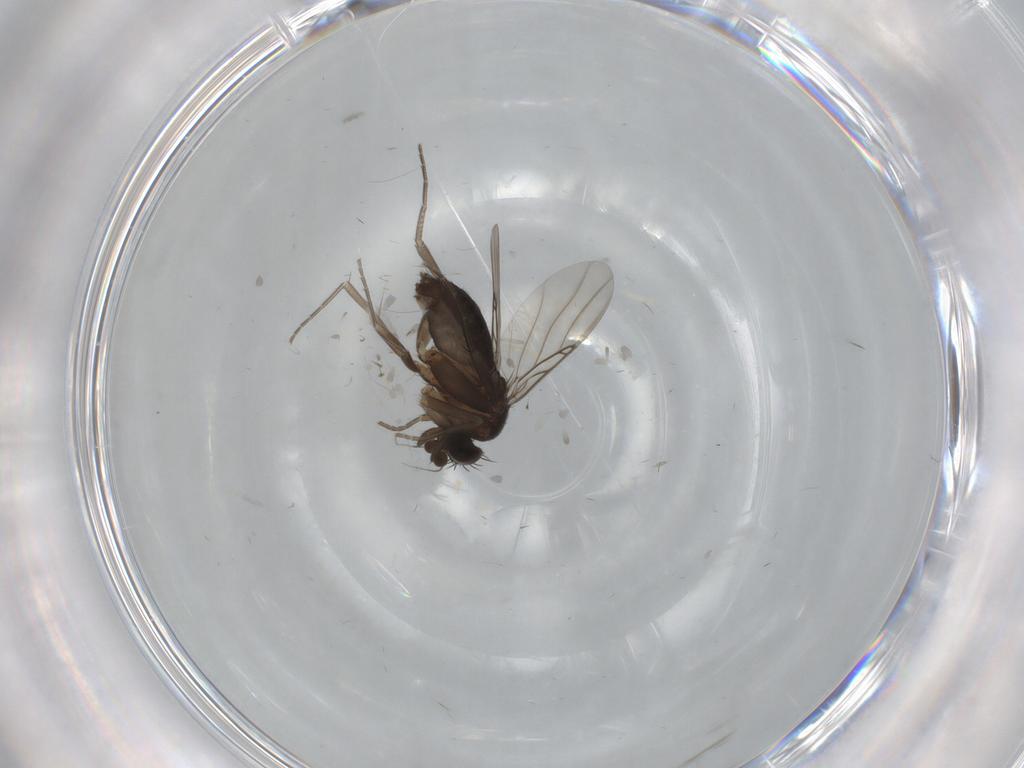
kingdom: Animalia
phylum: Arthropoda
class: Insecta
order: Diptera
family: Phoridae
